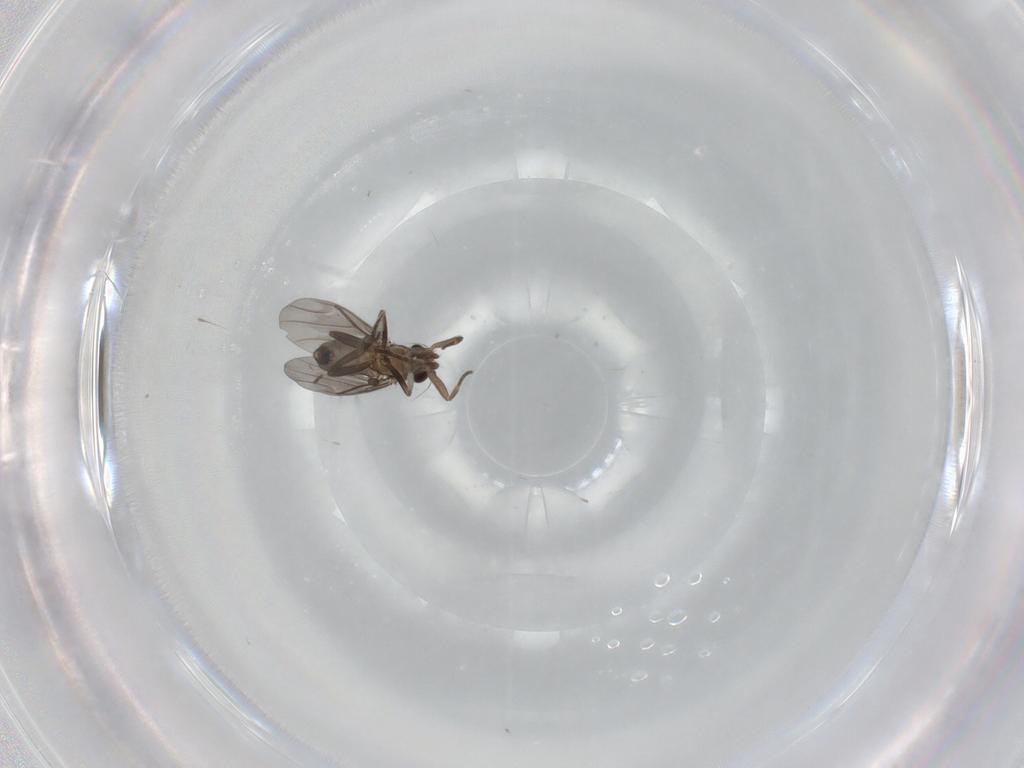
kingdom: Animalia
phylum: Arthropoda
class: Insecta
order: Diptera
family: Phoridae
